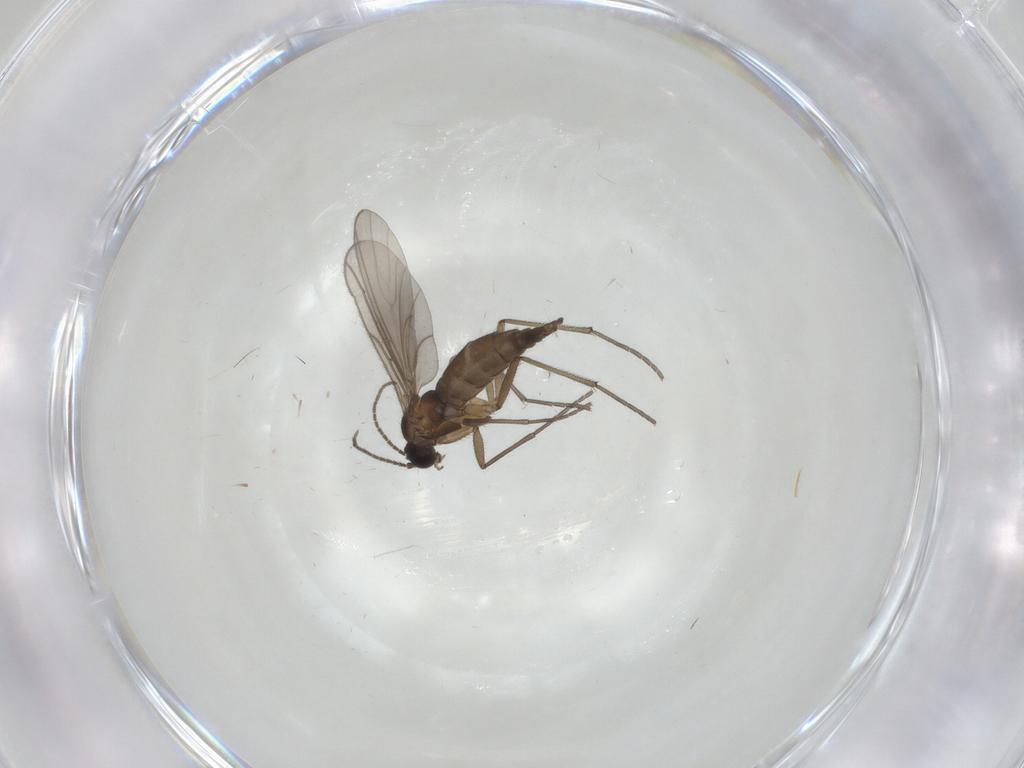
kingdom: Animalia
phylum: Arthropoda
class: Insecta
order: Diptera
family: Sciaridae
